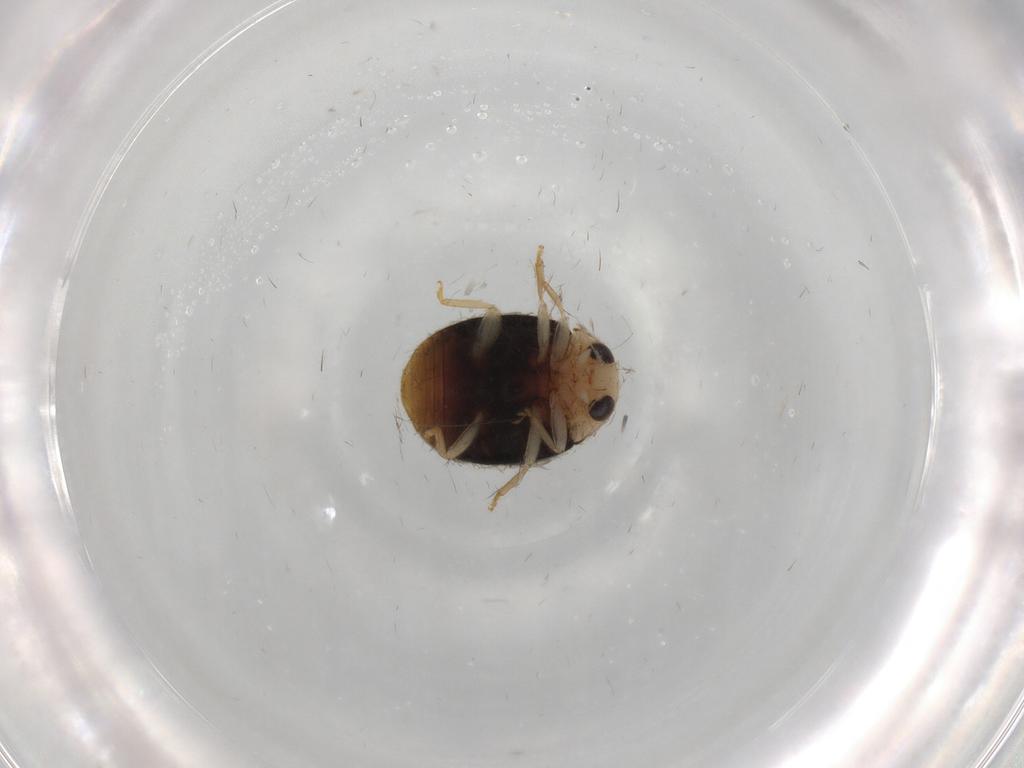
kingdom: Animalia
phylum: Arthropoda
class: Insecta
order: Coleoptera
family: Coccinellidae
